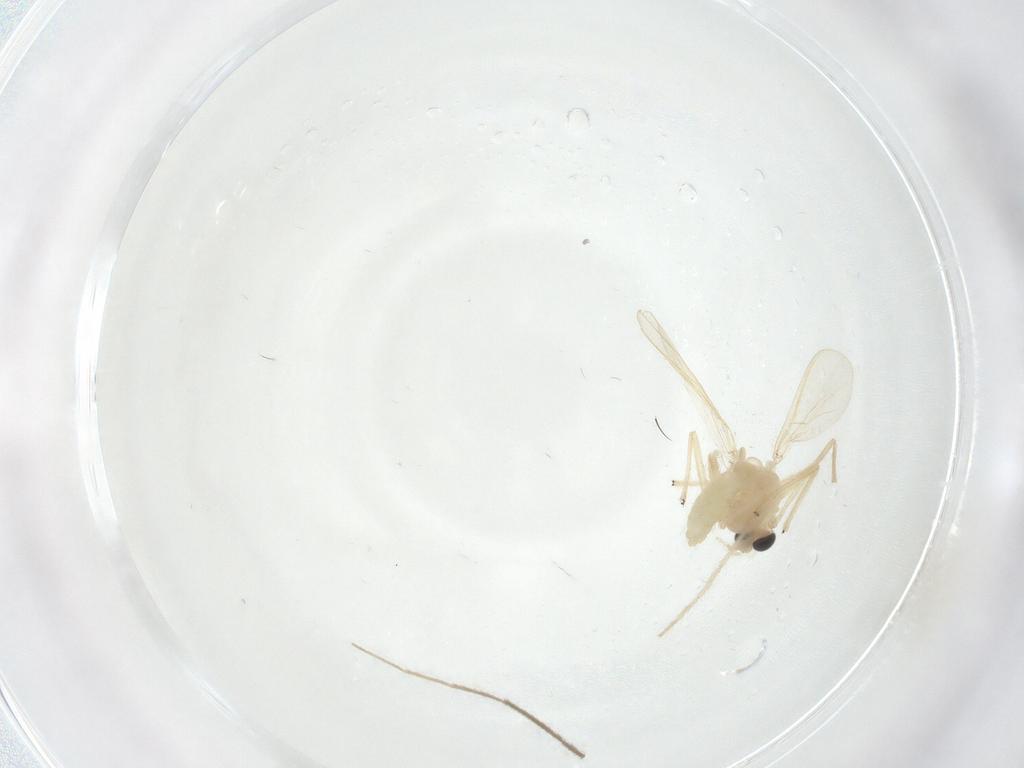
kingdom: Animalia
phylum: Arthropoda
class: Insecta
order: Diptera
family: Chironomidae
